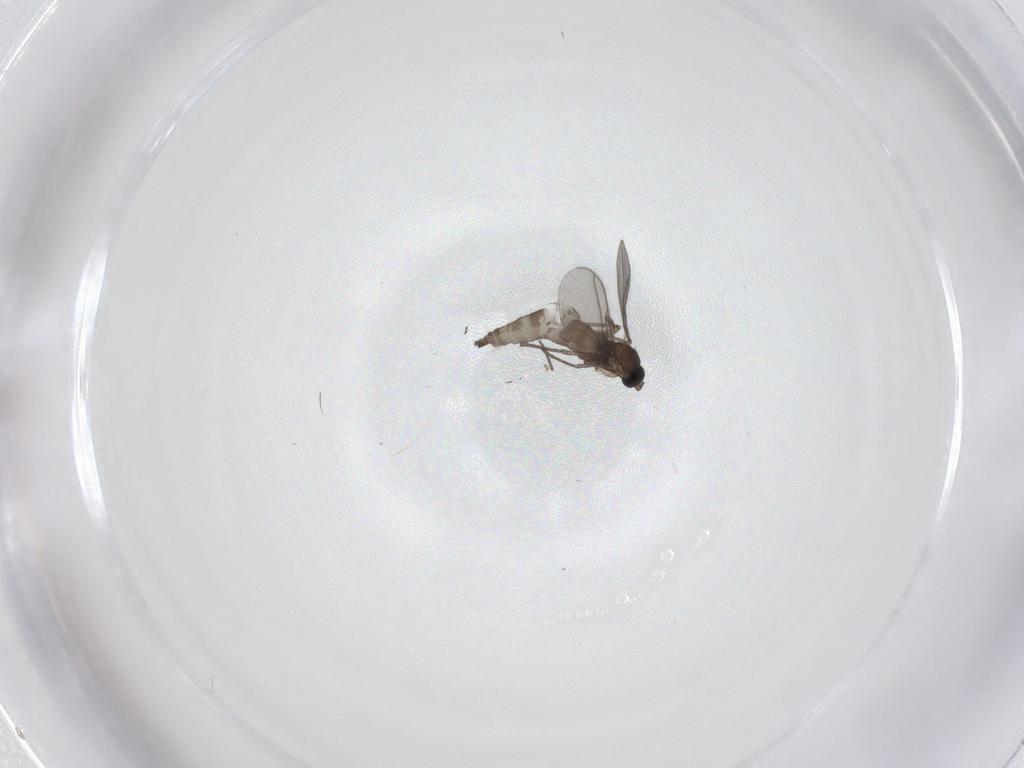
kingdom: Animalia
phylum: Arthropoda
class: Insecta
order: Diptera
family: Sciaridae
